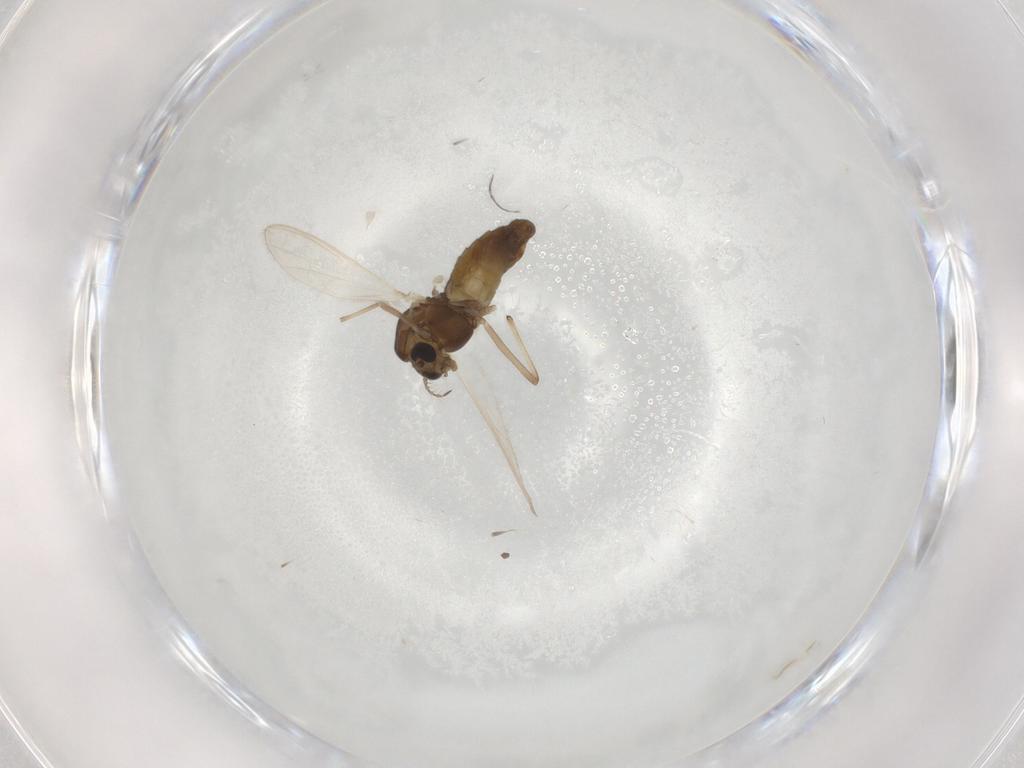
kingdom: Animalia
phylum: Arthropoda
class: Insecta
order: Diptera
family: Chironomidae
